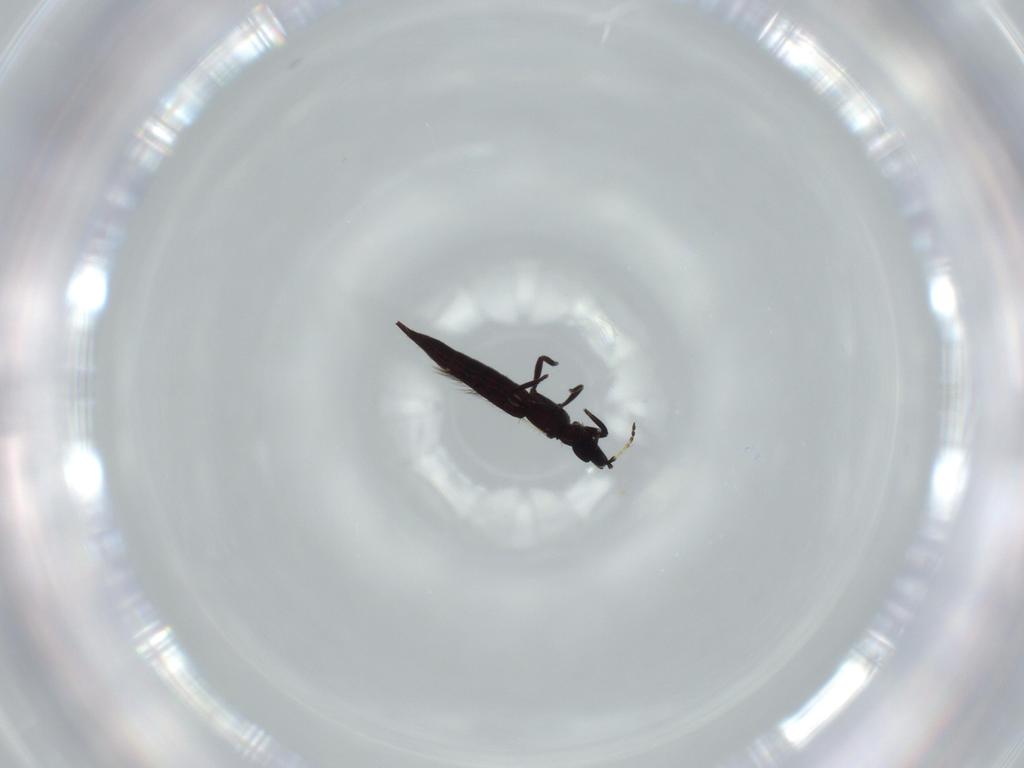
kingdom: Animalia
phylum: Arthropoda
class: Insecta
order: Thysanoptera
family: Phlaeothripidae
